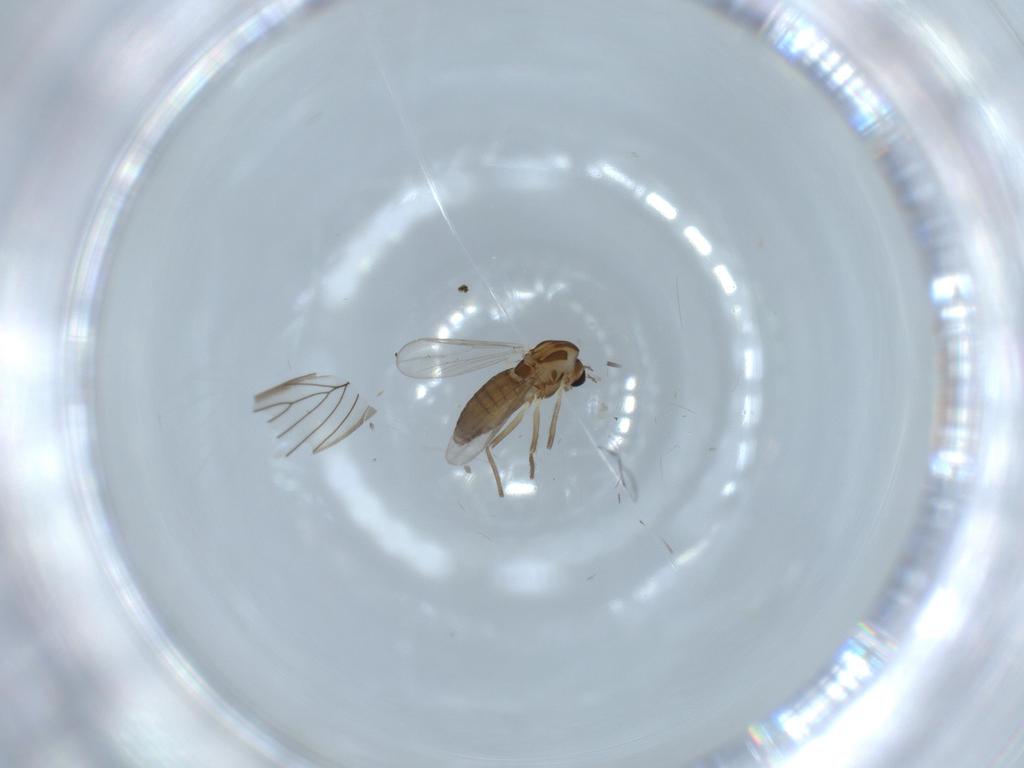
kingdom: Animalia
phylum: Arthropoda
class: Insecta
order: Diptera
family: Chironomidae
